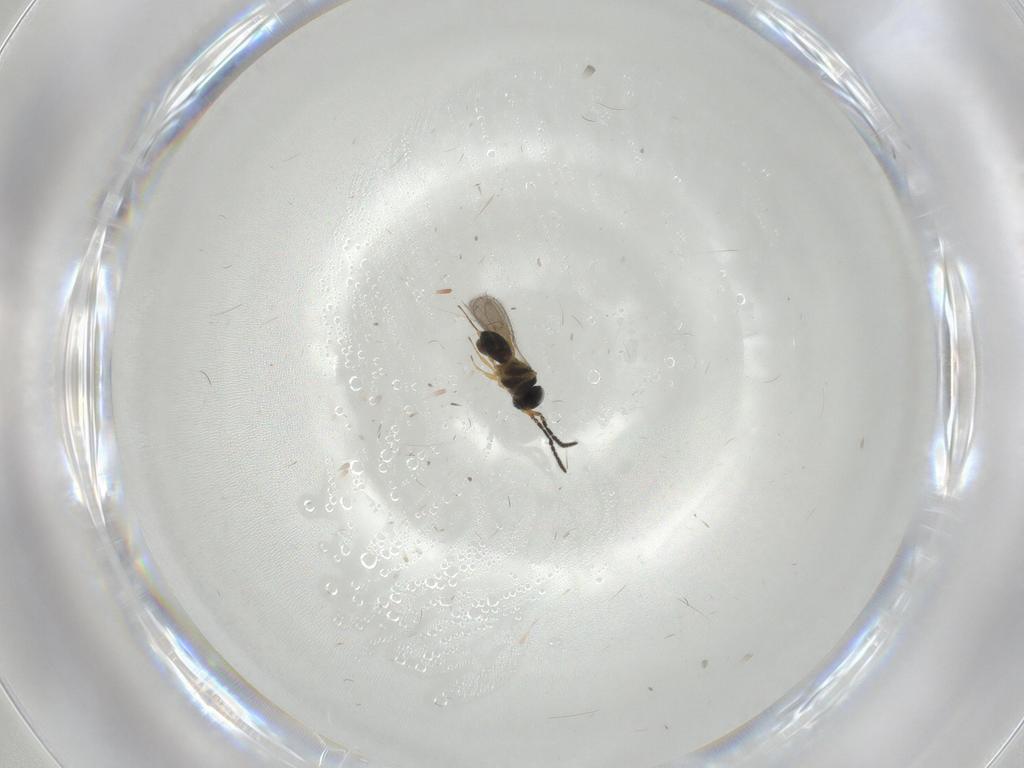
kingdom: Animalia
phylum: Arthropoda
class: Insecta
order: Hymenoptera
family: Scelionidae
